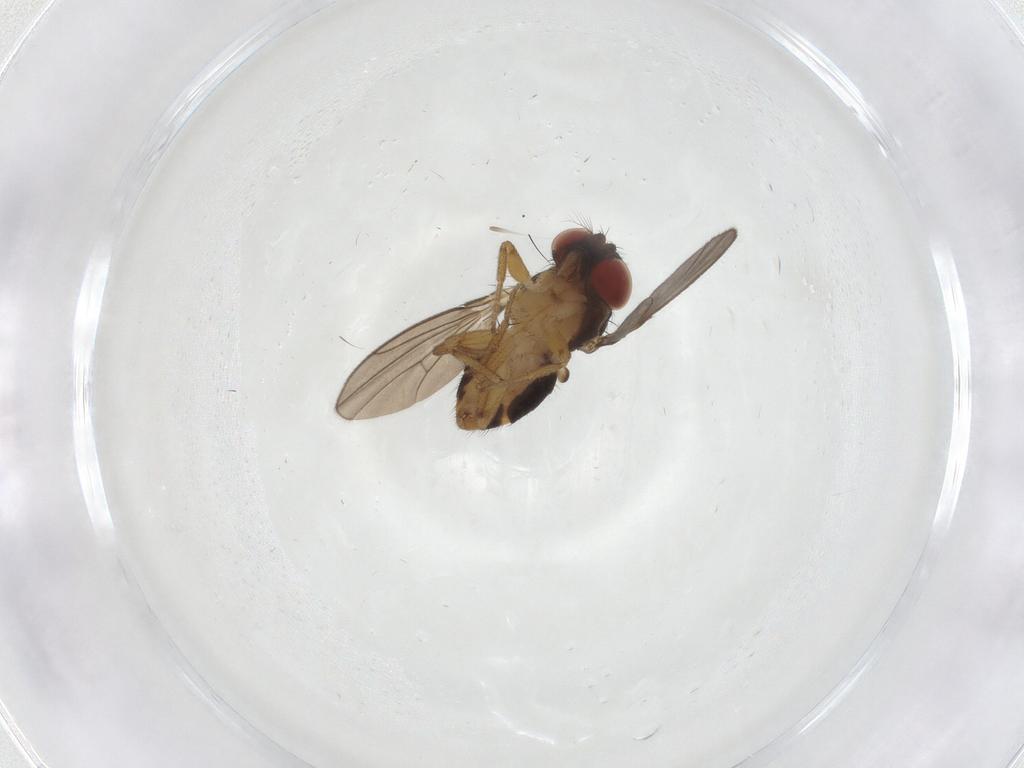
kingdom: Animalia
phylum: Arthropoda
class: Insecta
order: Diptera
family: Drosophilidae
